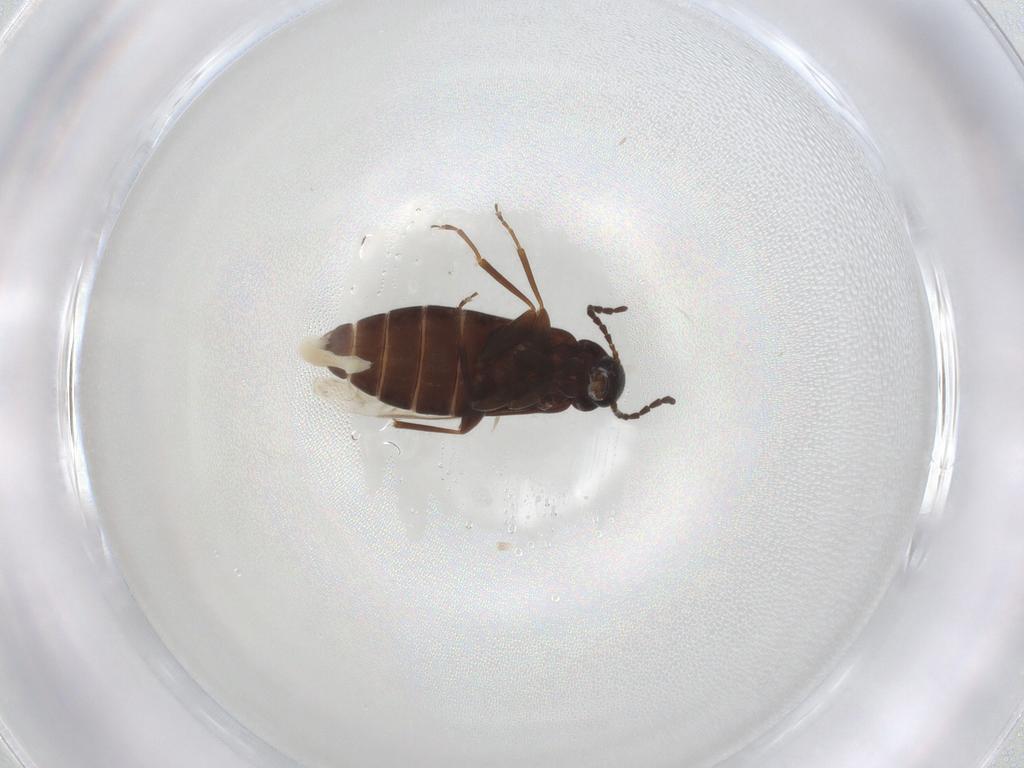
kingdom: Animalia
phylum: Arthropoda
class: Insecta
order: Coleoptera
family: Scraptiidae
